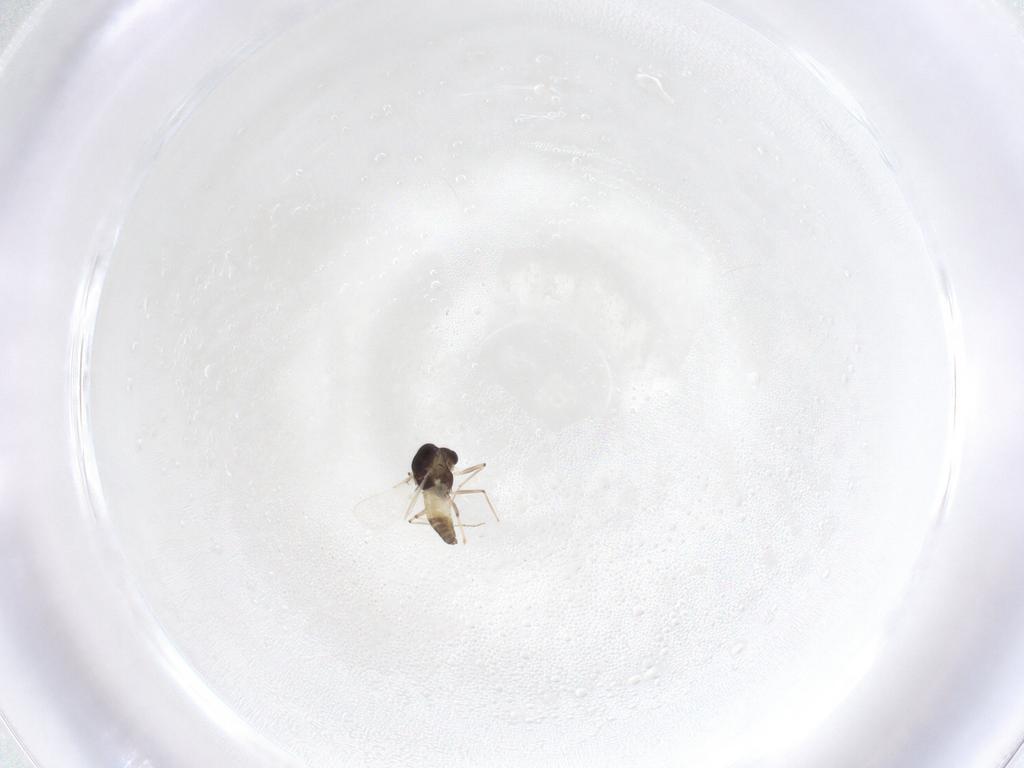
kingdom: Animalia
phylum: Arthropoda
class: Insecta
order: Diptera
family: Chironomidae
